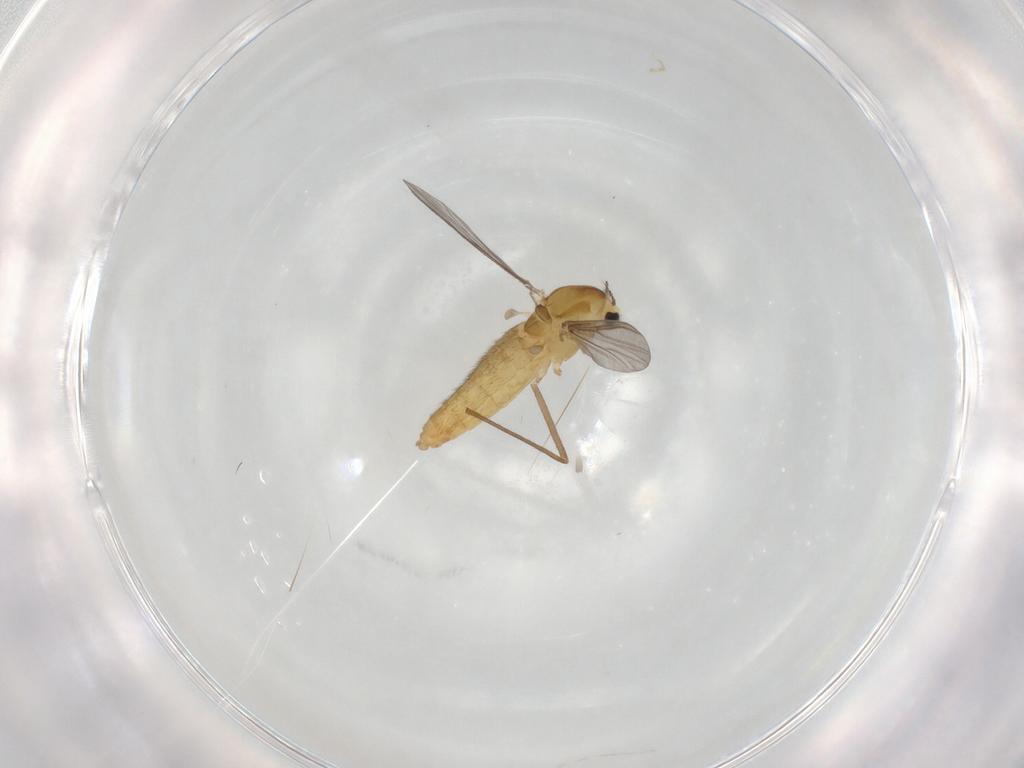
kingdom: Animalia
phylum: Arthropoda
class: Insecta
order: Diptera
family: Chironomidae
